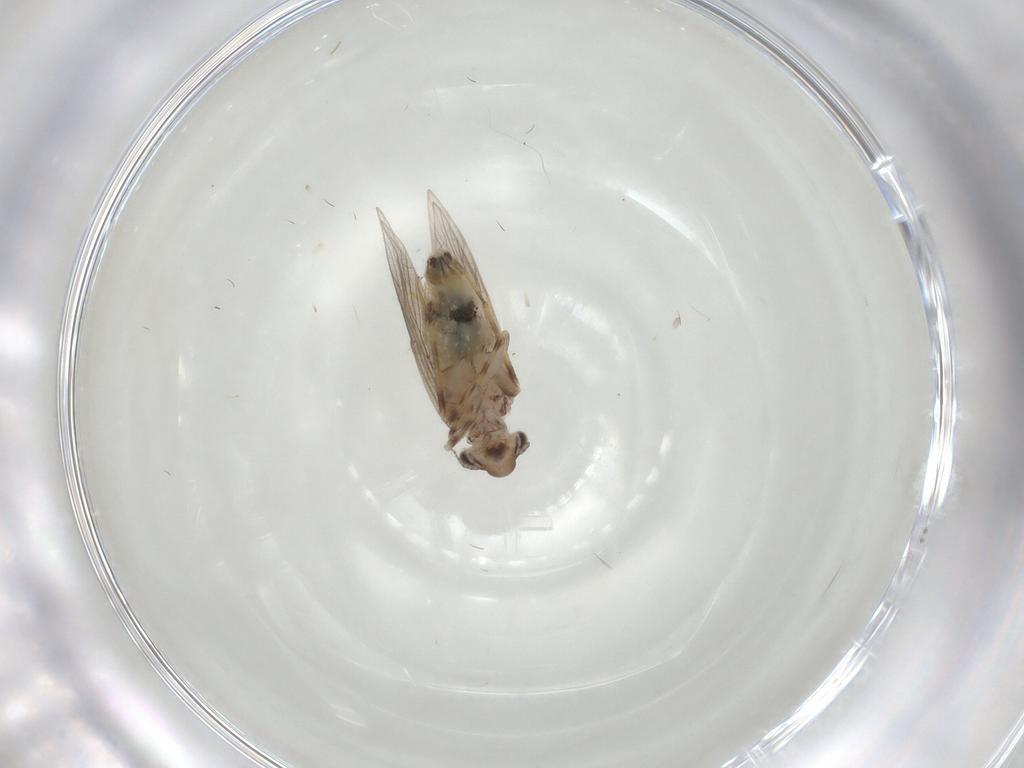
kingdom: Animalia
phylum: Arthropoda
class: Insecta
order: Psocodea
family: Lepidopsocidae
